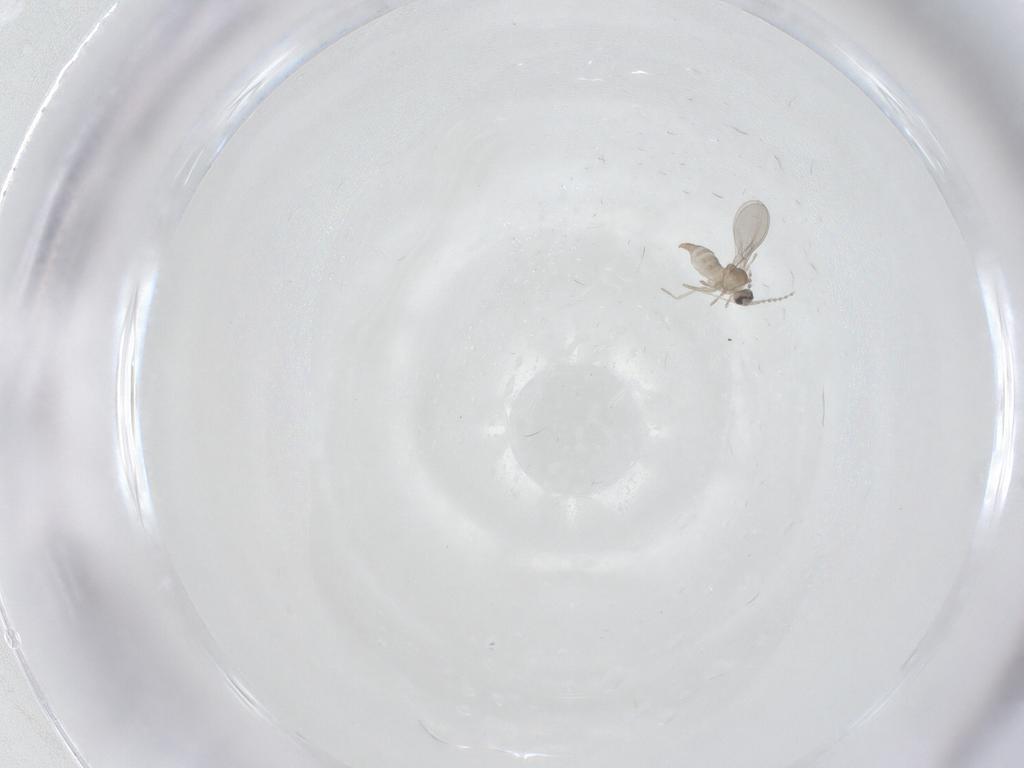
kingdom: Animalia
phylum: Arthropoda
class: Insecta
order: Diptera
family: Cecidomyiidae
